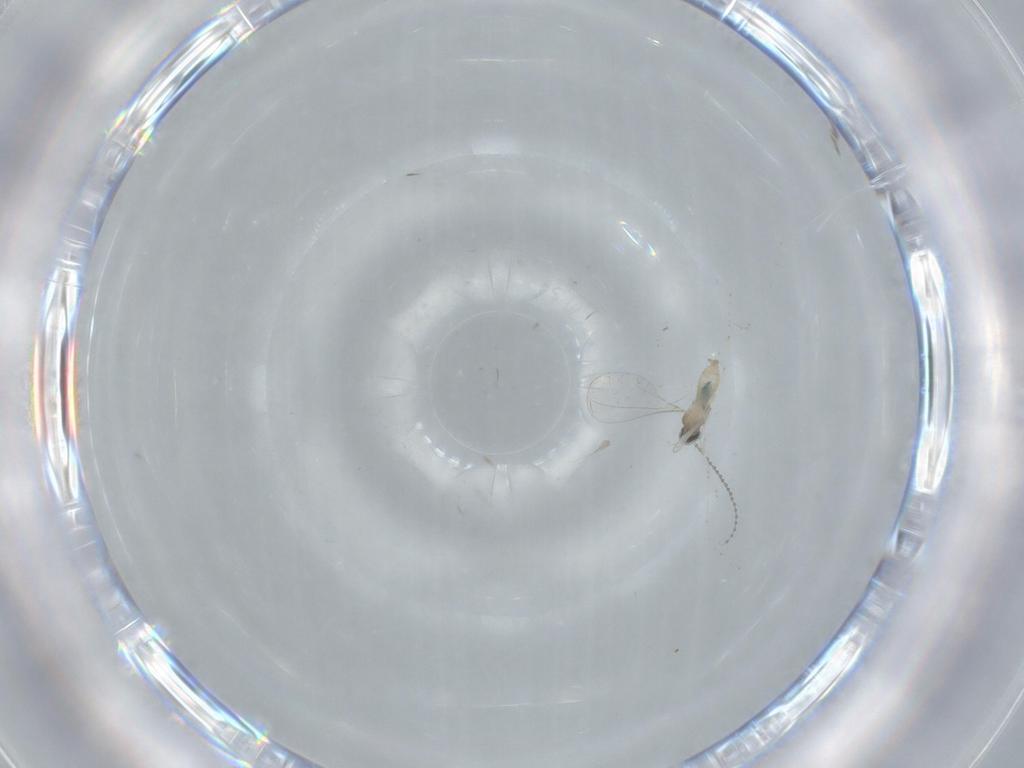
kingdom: Animalia
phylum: Arthropoda
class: Insecta
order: Diptera
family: Cecidomyiidae
